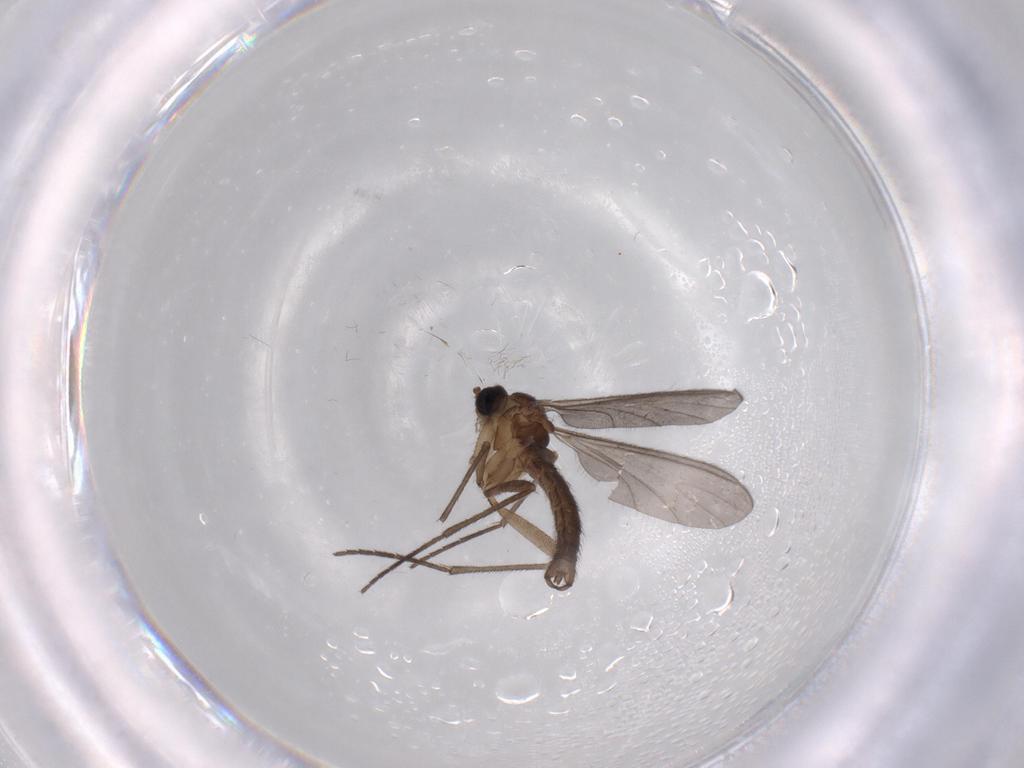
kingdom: Animalia
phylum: Arthropoda
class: Insecta
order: Diptera
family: Sciaridae
